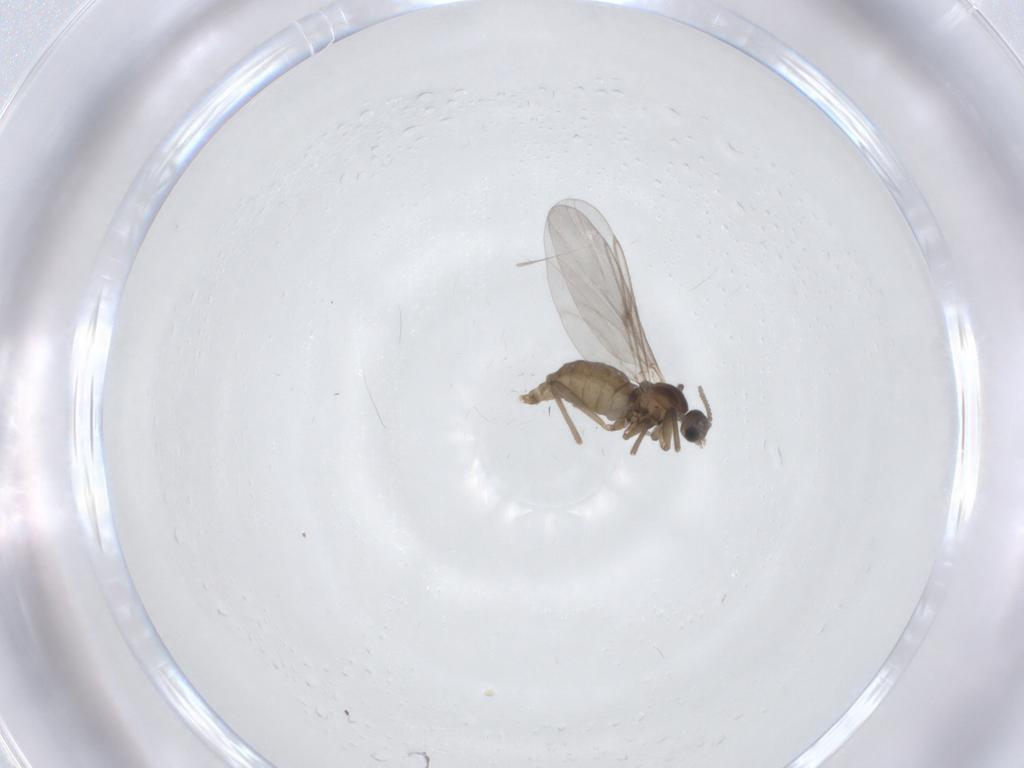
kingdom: Animalia
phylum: Arthropoda
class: Insecta
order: Diptera
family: Cecidomyiidae
